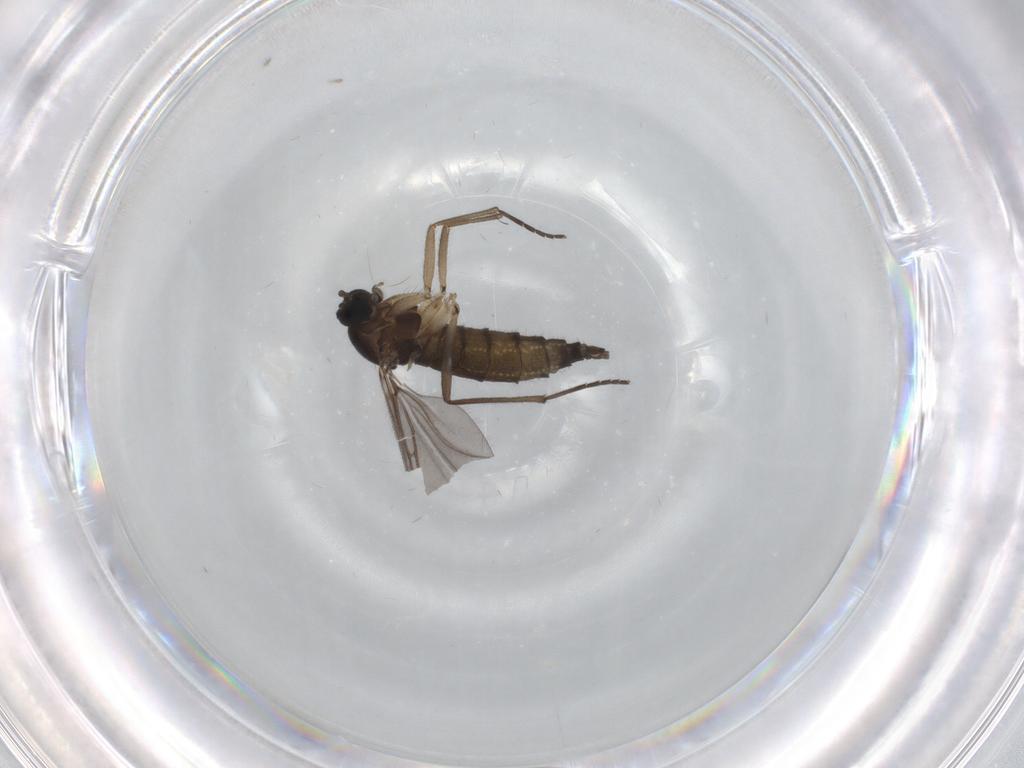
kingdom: Animalia
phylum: Arthropoda
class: Insecta
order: Diptera
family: Sciaridae
